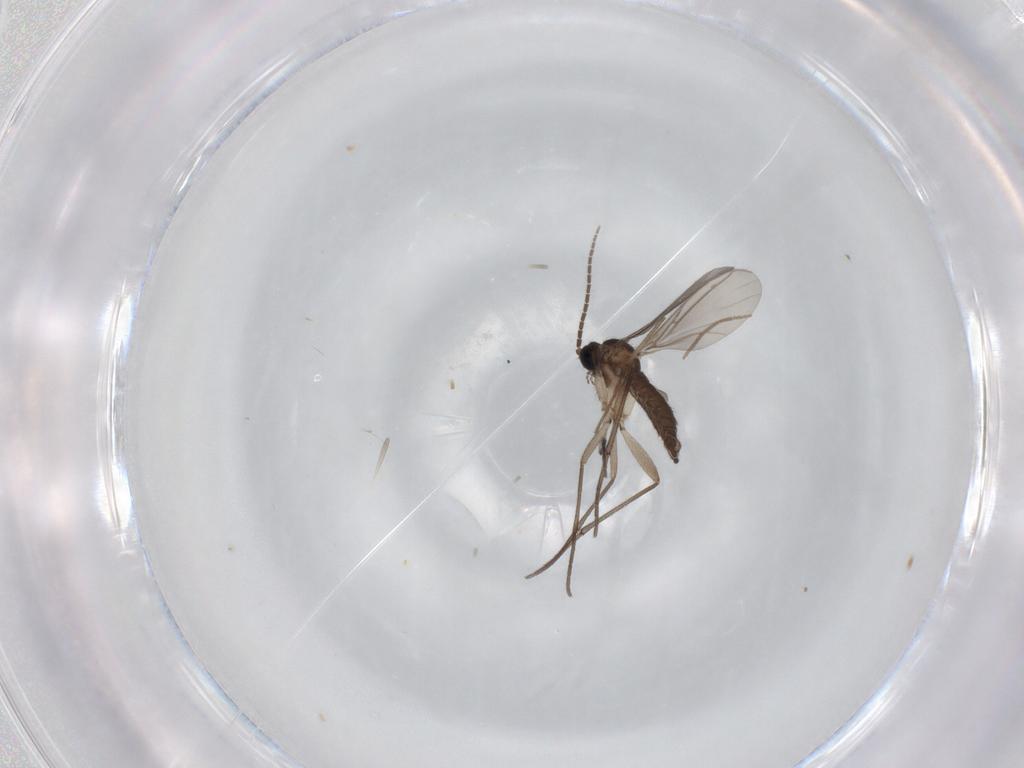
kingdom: Animalia
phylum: Arthropoda
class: Insecta
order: Diptera
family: Sciaridae
